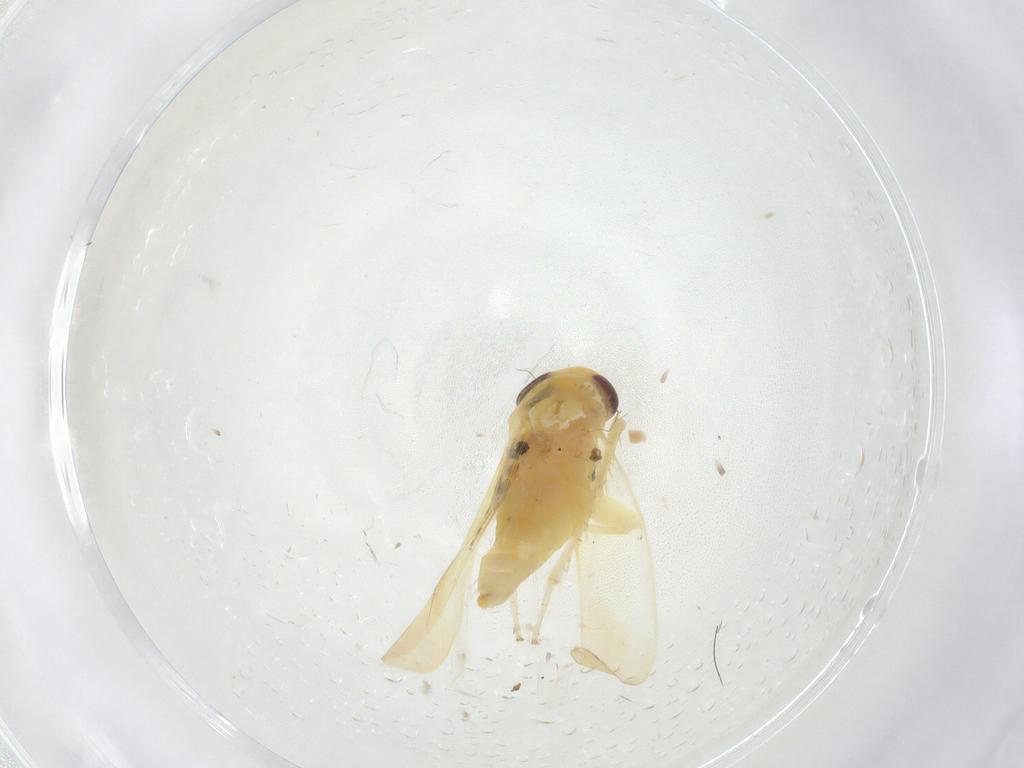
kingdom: Animalia
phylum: Arthropoda
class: Insecta
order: Hemiptera
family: Cicadellidae
